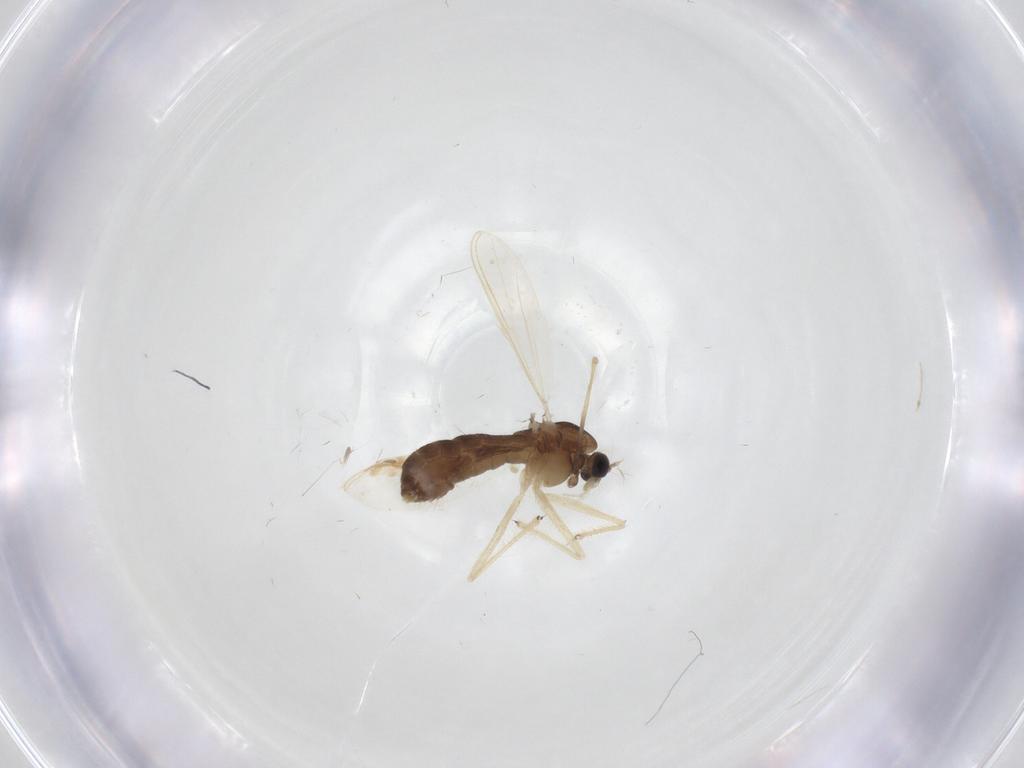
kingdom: Animalia
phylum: Arthropoda
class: Insecta
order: Diptera
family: Chironomidae
